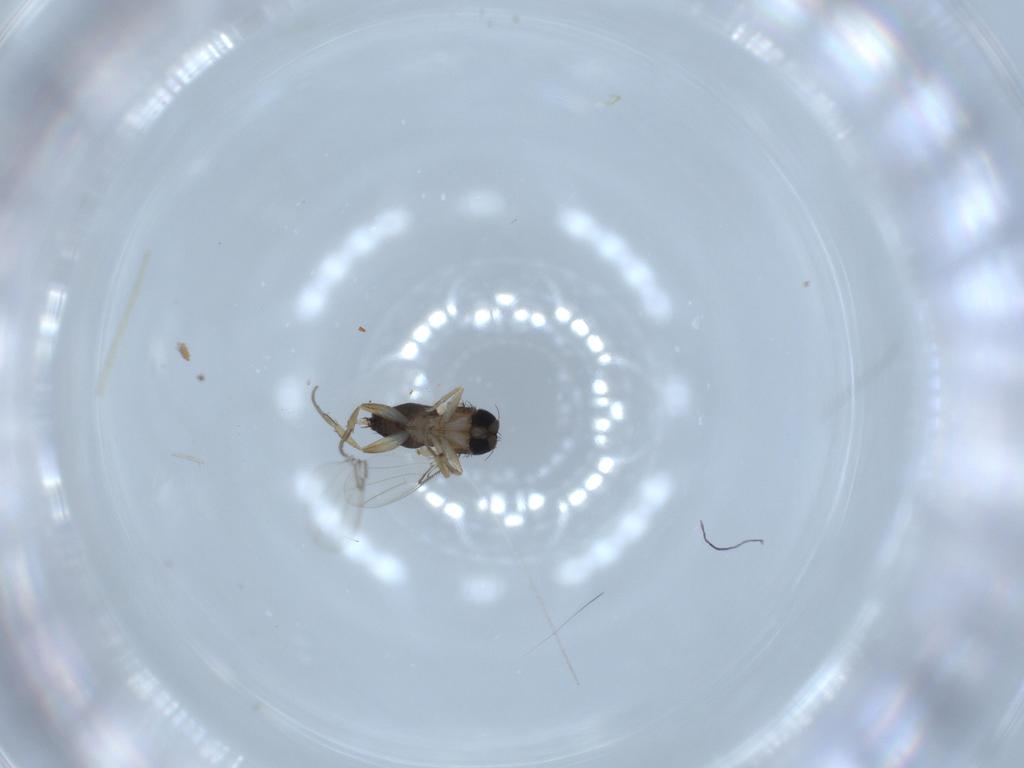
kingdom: Animalia
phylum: Arthropoda
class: Insecta
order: Diptera
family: Phoridae
